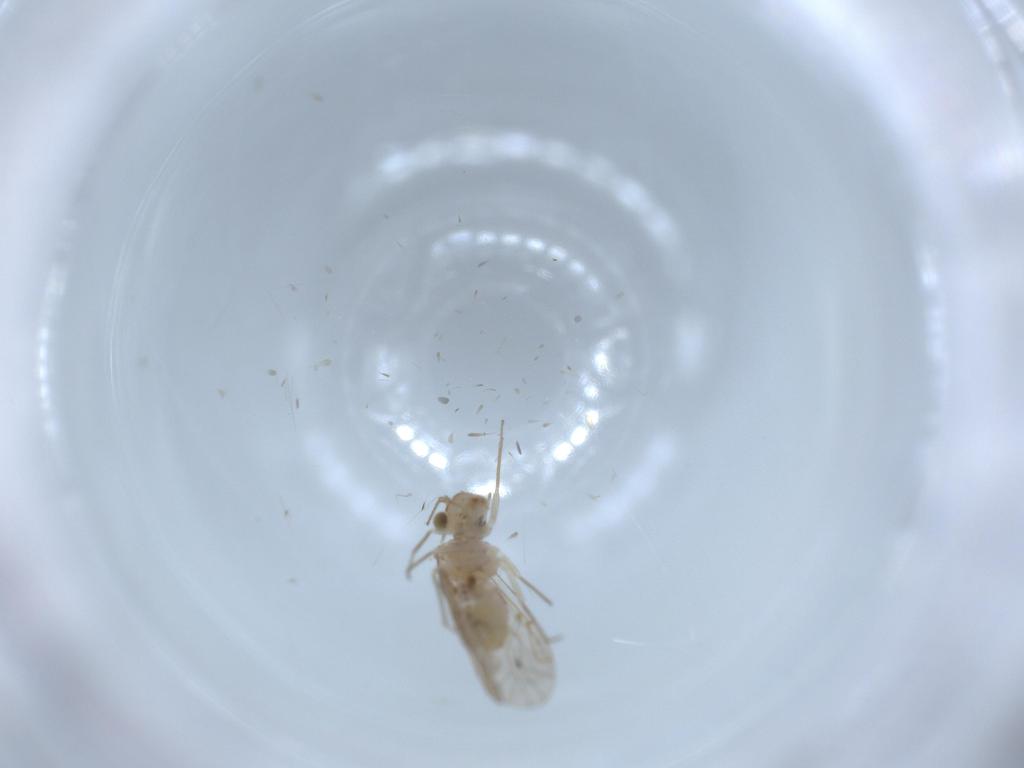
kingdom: Animalia
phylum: Arthropoda
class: Insecta
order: Psocodea
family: Lachesillidae
